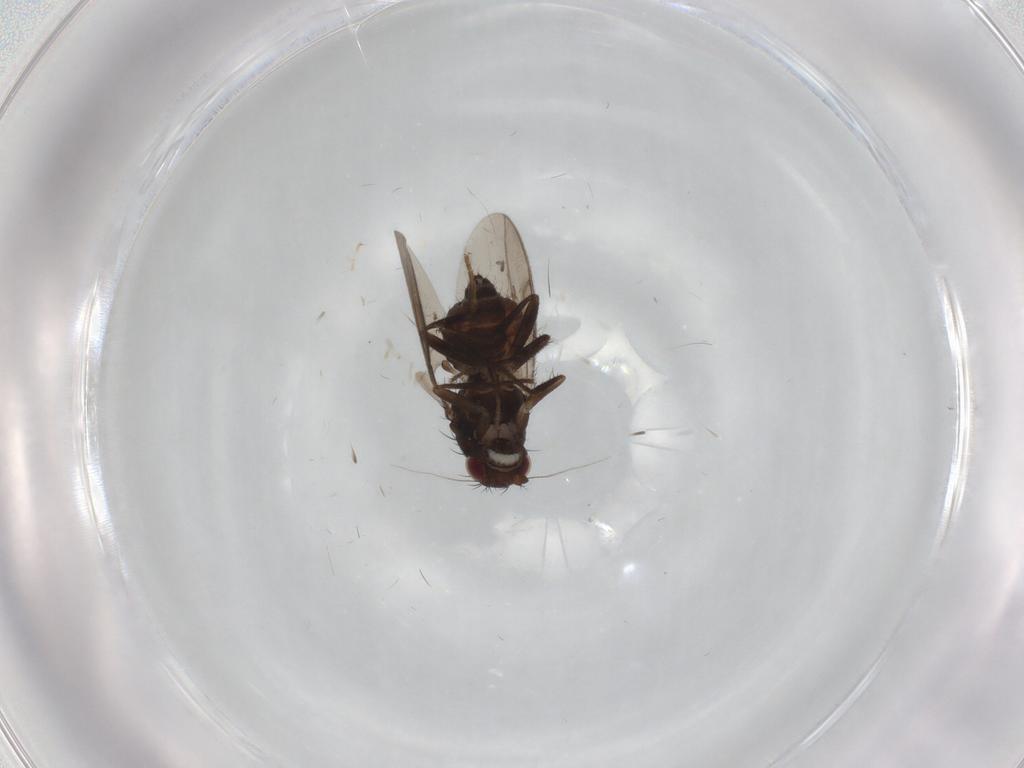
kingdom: Animalia
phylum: Arthropoda
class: Insecta
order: Diptera
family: Sphaeroceridae
